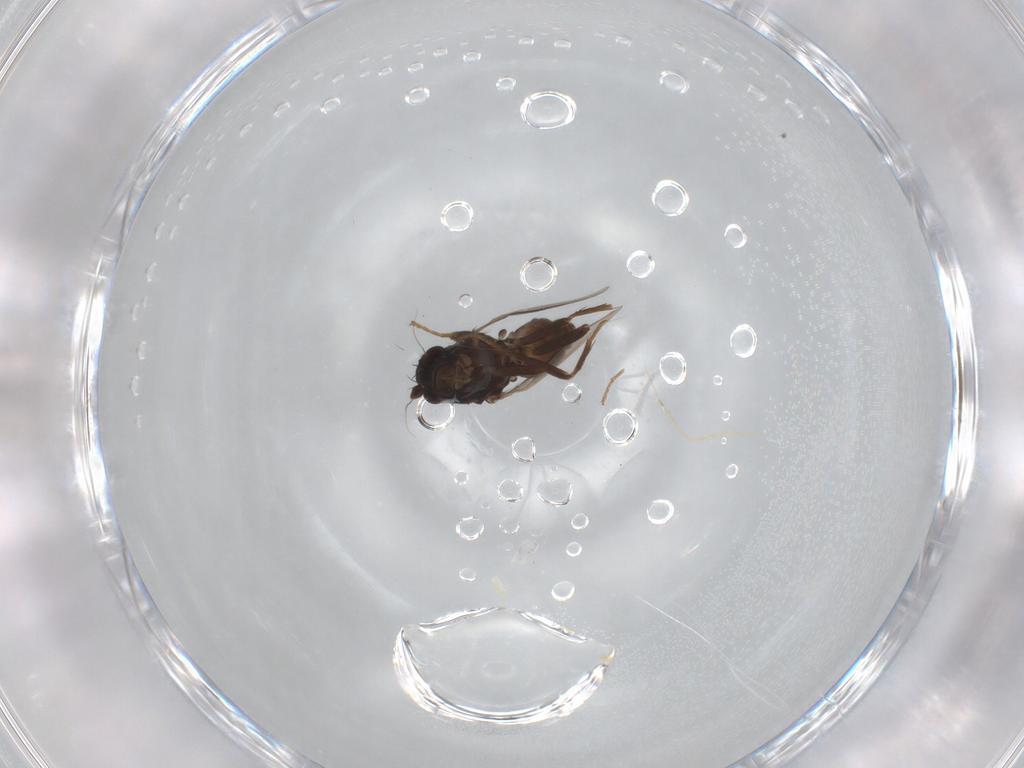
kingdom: Animalia
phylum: Arthropoda
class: Insecta
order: Diptera
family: Sphaeroceridae
